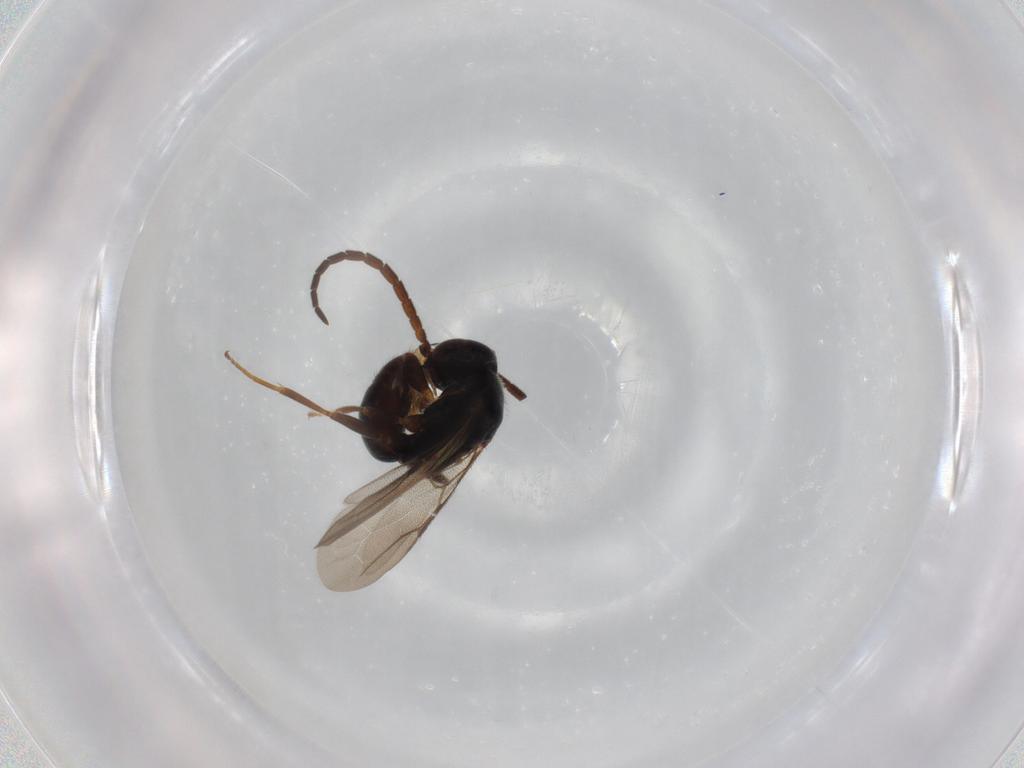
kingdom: Animalia
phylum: Arthropoda
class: Insecta
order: Hymenoptera
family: Bethylidae
